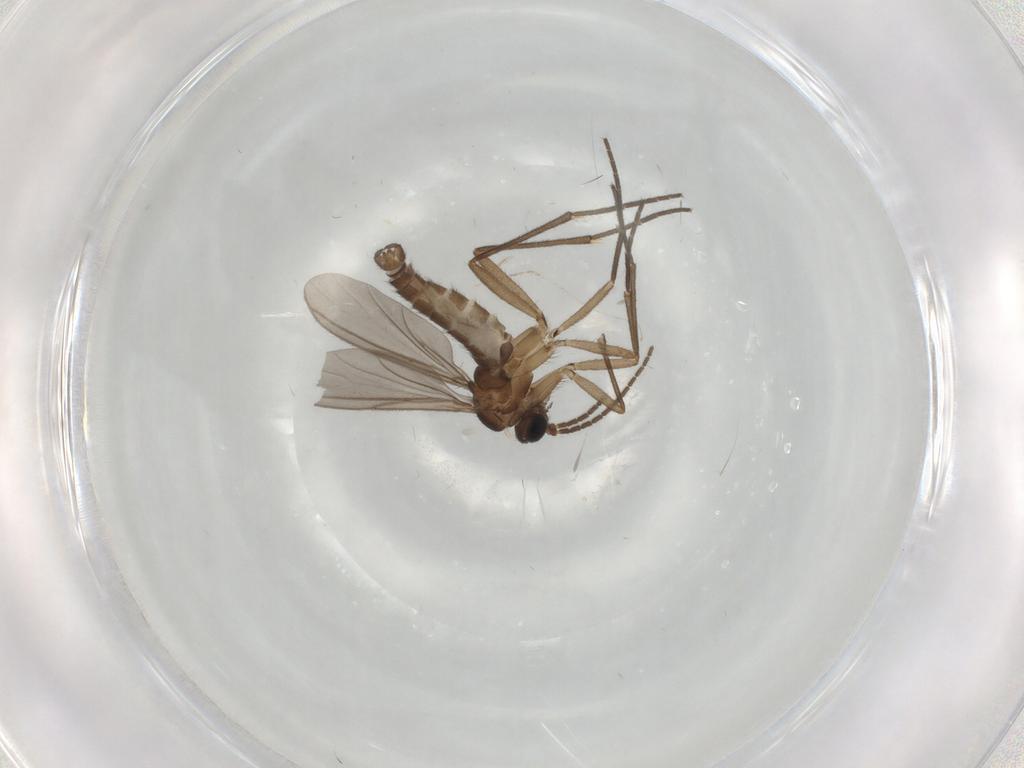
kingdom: Animalia
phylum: Arthropoda
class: Insecta
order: Diptera
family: Sciaridae
